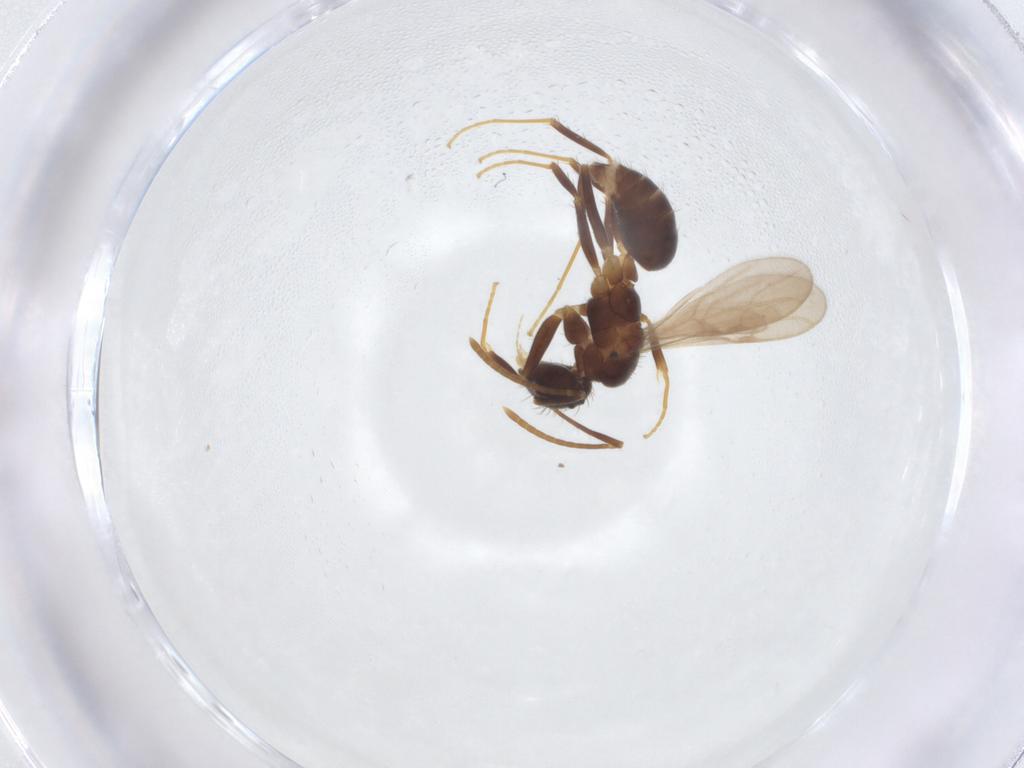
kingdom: Animalia
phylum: Arthropoda
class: Insecta
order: Hymenoptera
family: Formicidae
